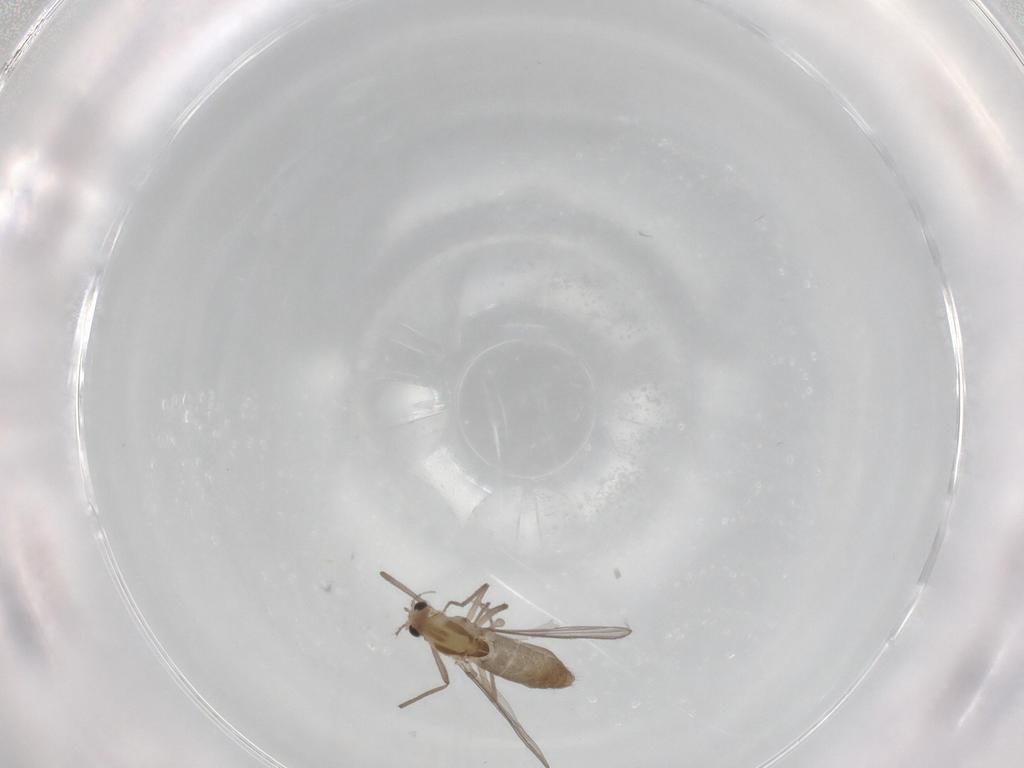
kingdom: Animalia
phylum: Arthropoda
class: Insecta
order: Diptera
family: Chironomidae
